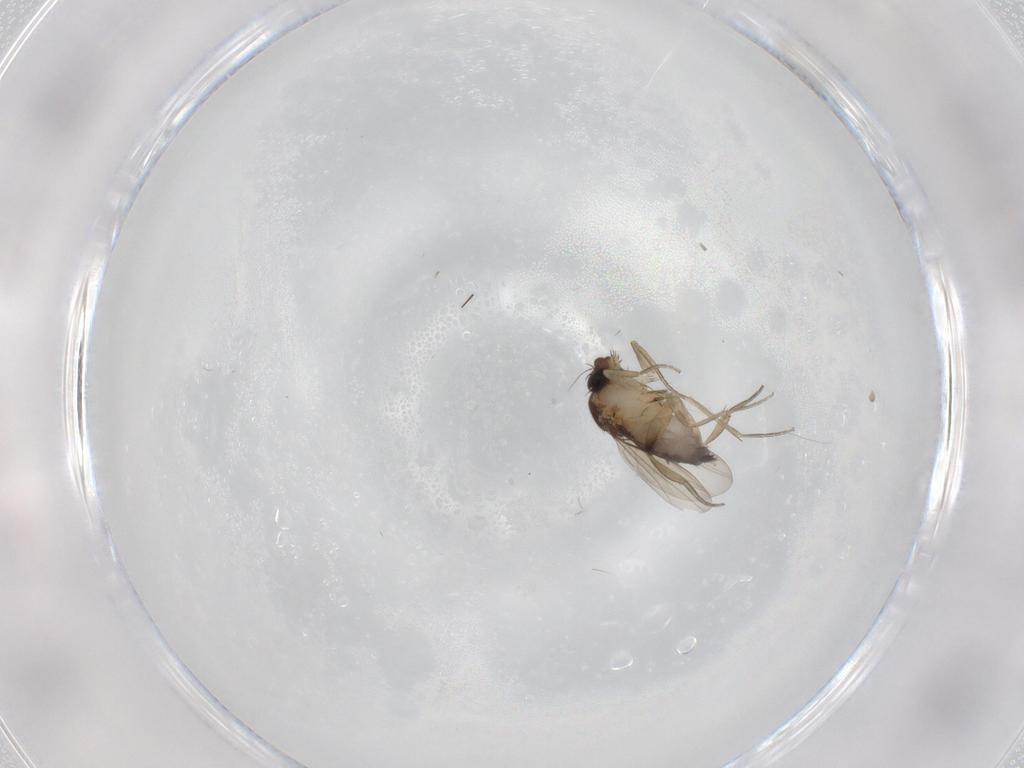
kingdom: Animalia
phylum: Arthropoda
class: Insecta
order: Diptera
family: Phoridae
